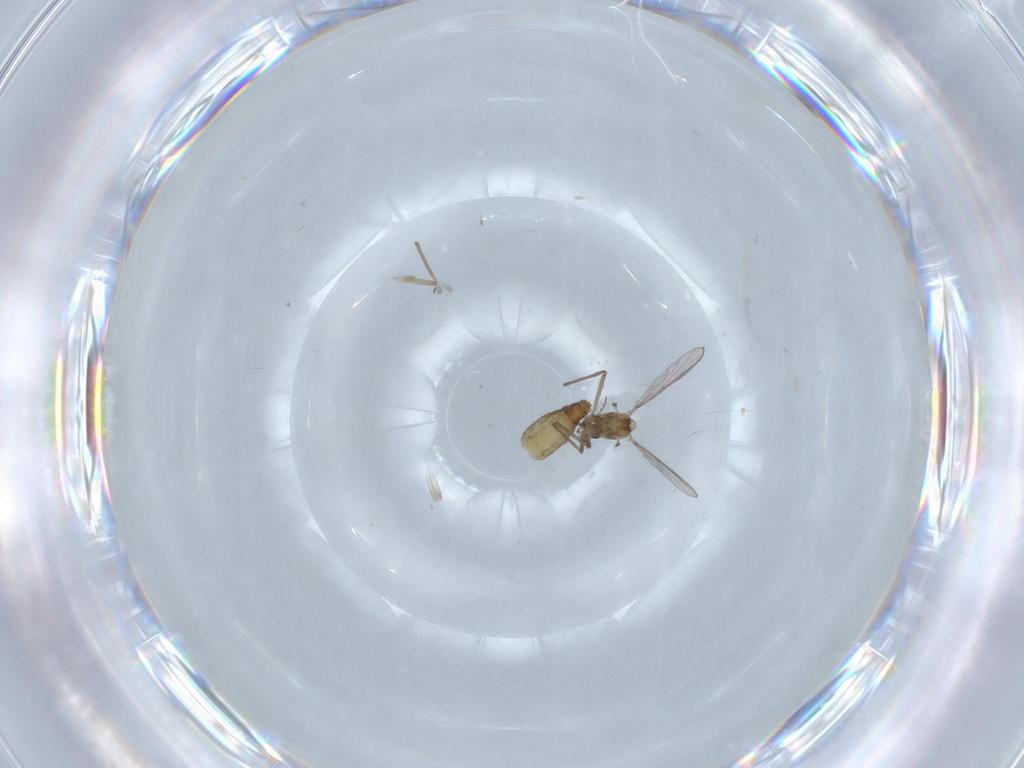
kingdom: Animalia
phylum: Arthropoda
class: Insecta
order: Diptera
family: Chironomidae
